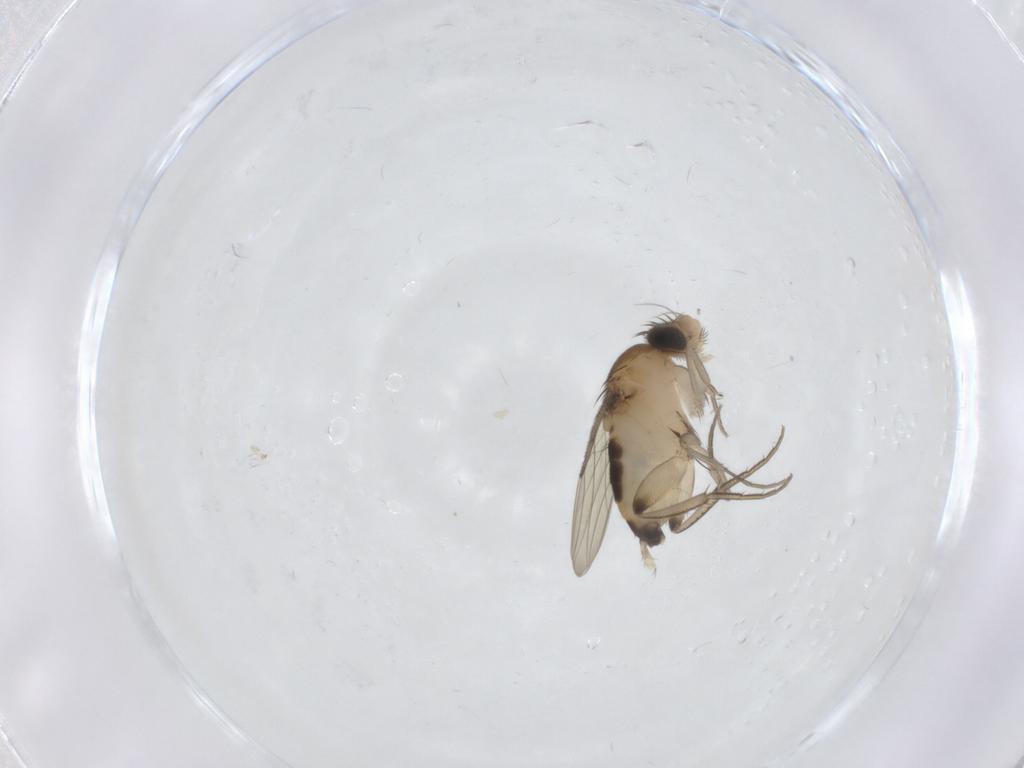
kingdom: Animalia
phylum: Arthropoda
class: Insecta
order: Diptera
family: Phoridae
